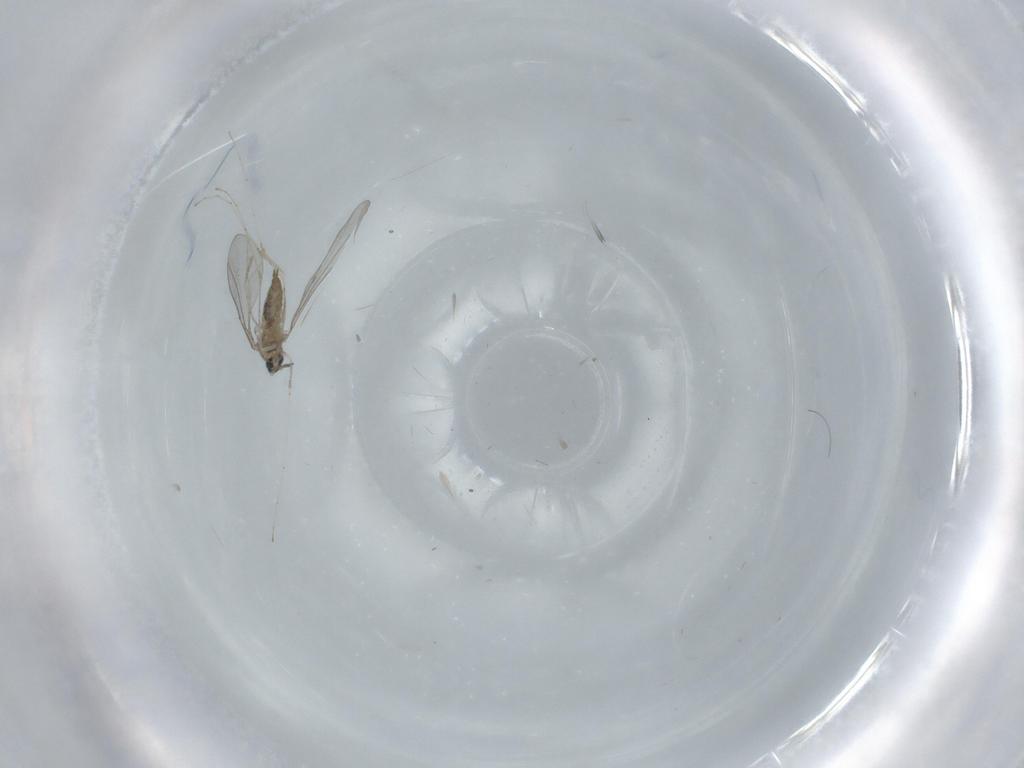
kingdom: Animalia
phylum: Arthropoda
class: Insecta
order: Diptera
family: Cecidomyiidae
